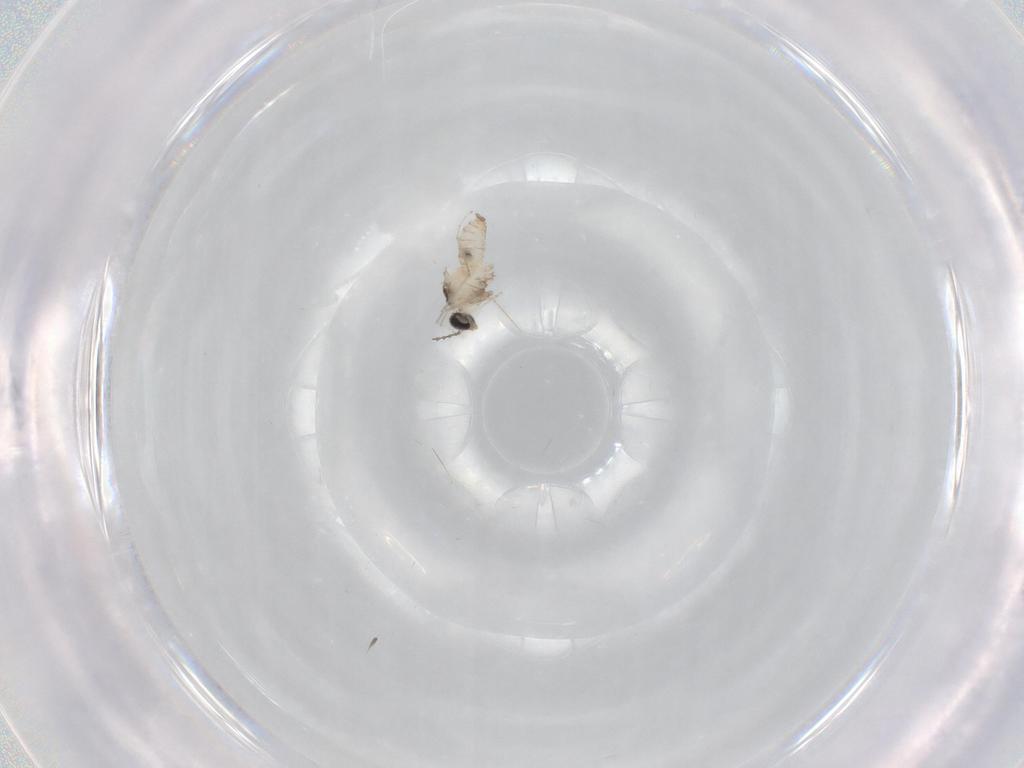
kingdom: Animalia
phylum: Arthropoda
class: Insecta
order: Diptera
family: Cecidomyiidae
